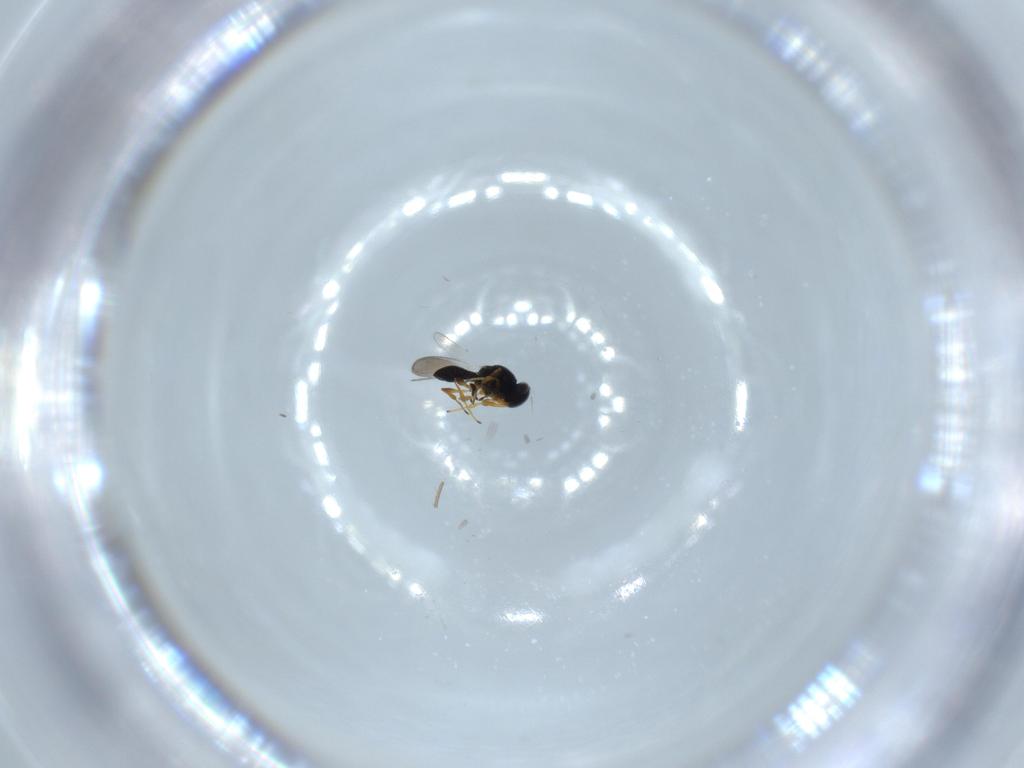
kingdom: Animalia
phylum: Arthropoda
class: Insecta
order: Hymenoptera
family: Platygastridae
